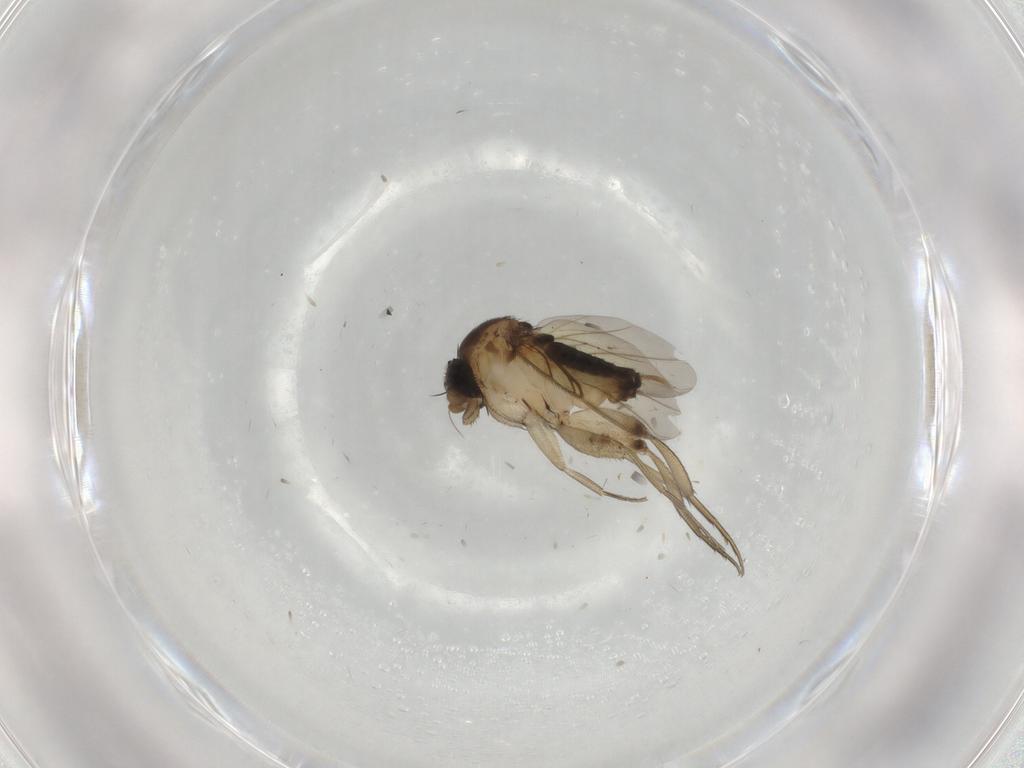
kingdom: Animalia
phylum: Arthropoda
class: Insecta
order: Diptera
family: Phoridae
